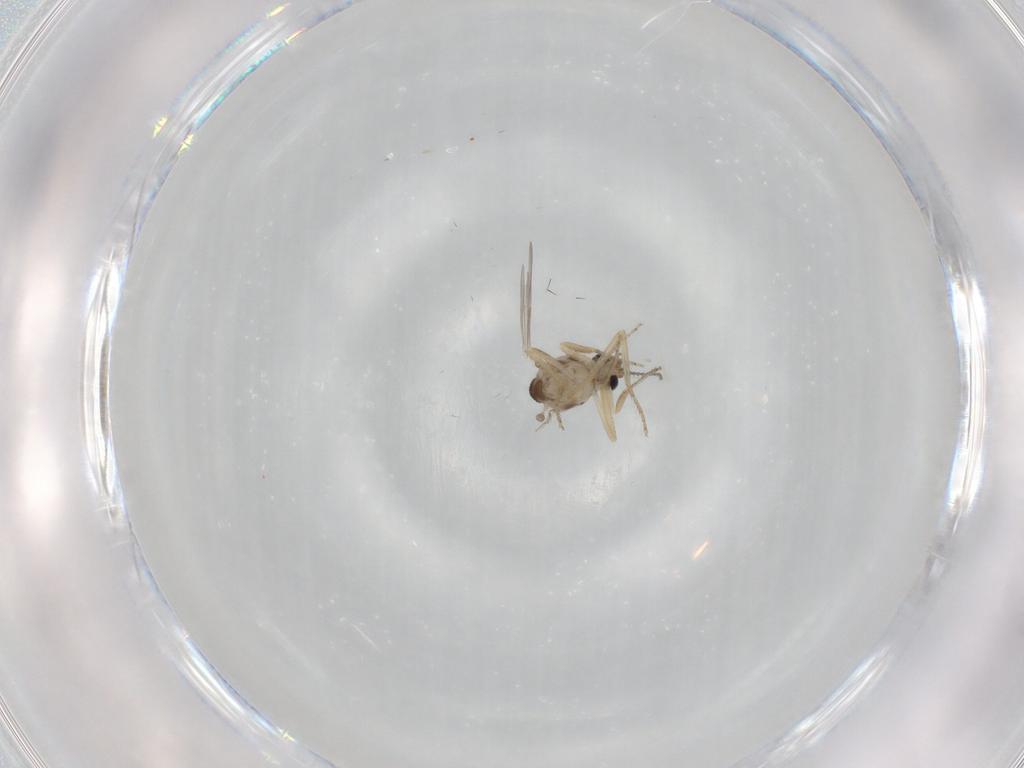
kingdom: Animalia
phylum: Arthropoda
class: Insecta
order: Diptera
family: Ceratopogonidae
